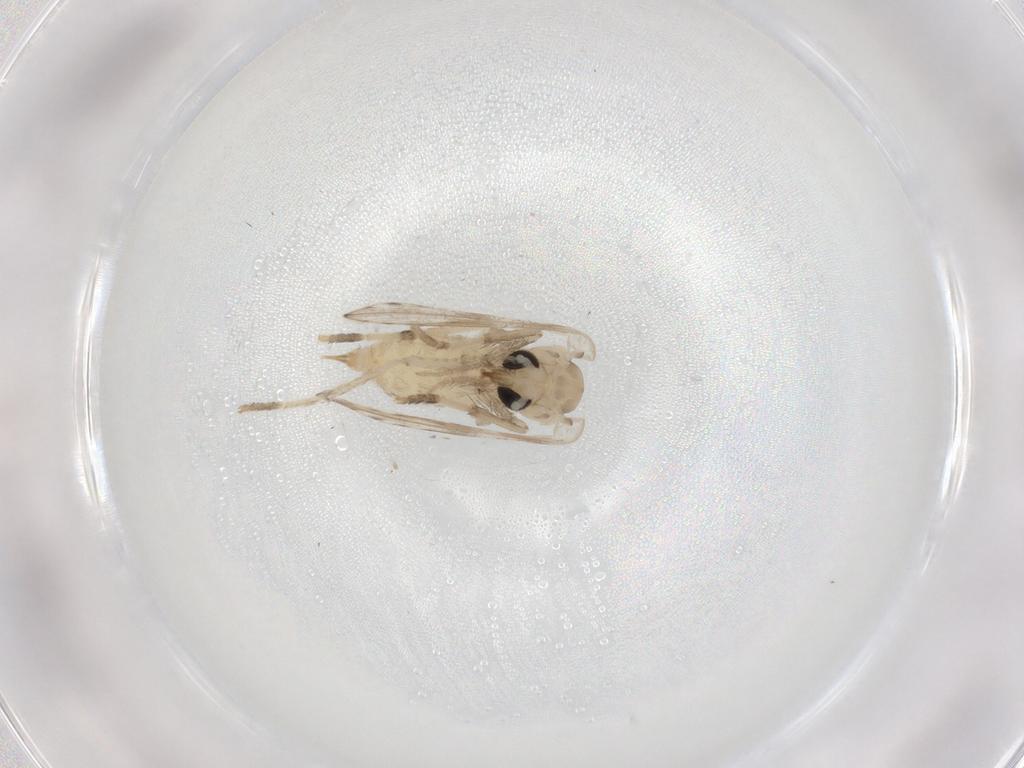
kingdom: Animalia
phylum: Arthropoda
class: Insecta
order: Diptera
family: Sciaridae
